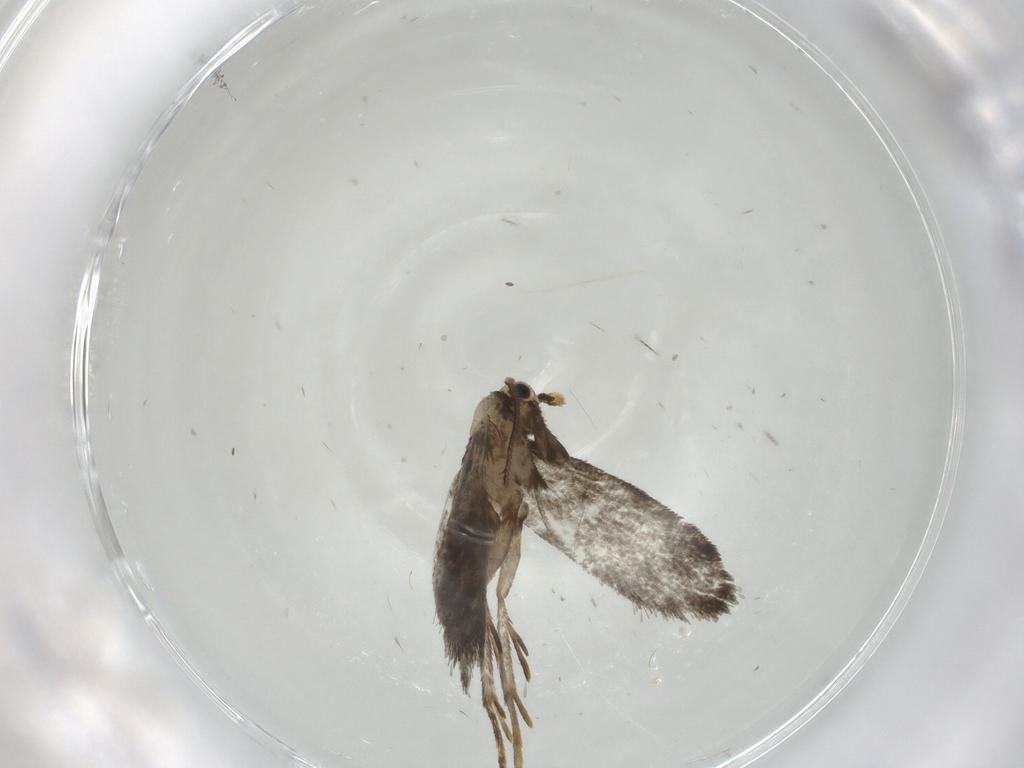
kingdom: Animalia
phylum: Arthropoda
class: Insecta
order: Lepidoptera
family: Psychidae
